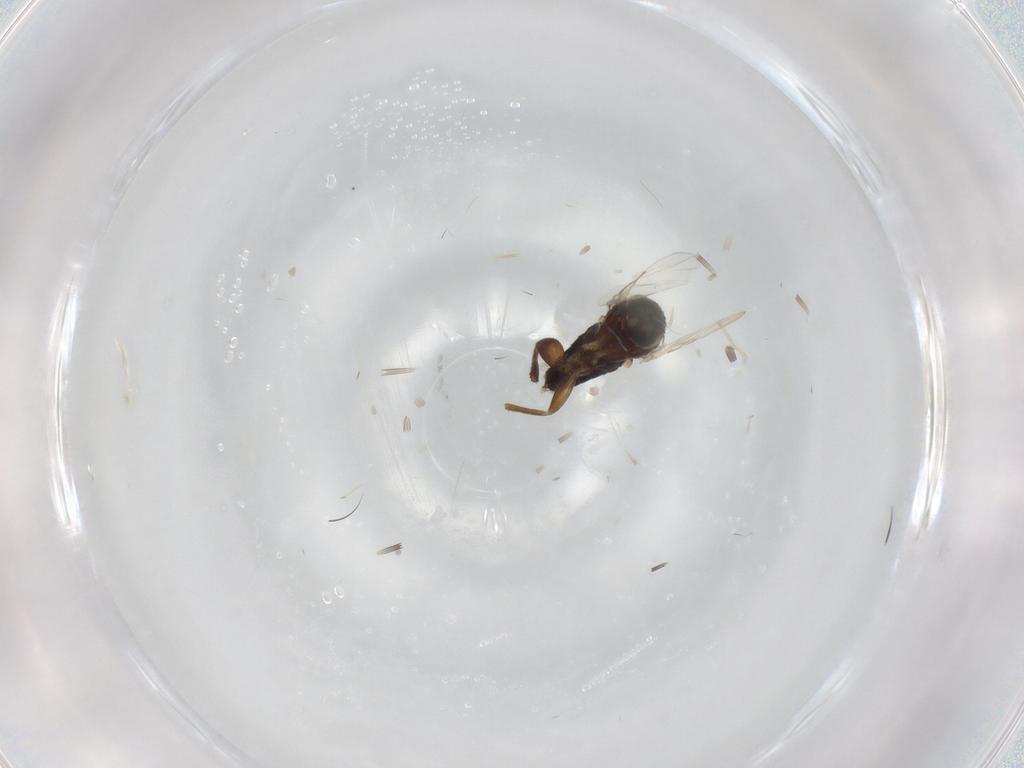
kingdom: Animalia
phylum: Arthropoda
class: Insecta
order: Diptera
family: Cecidomyiidae
